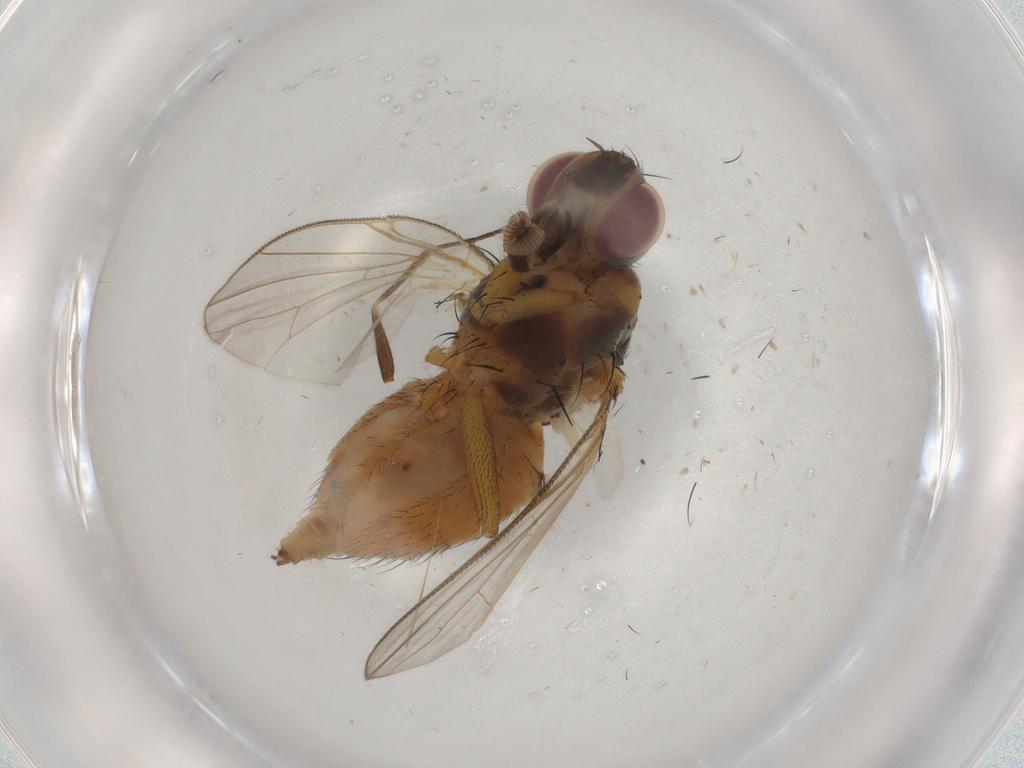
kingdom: Animalia
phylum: Arthropoda
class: Insecta
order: Diptera
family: Tachinidae
